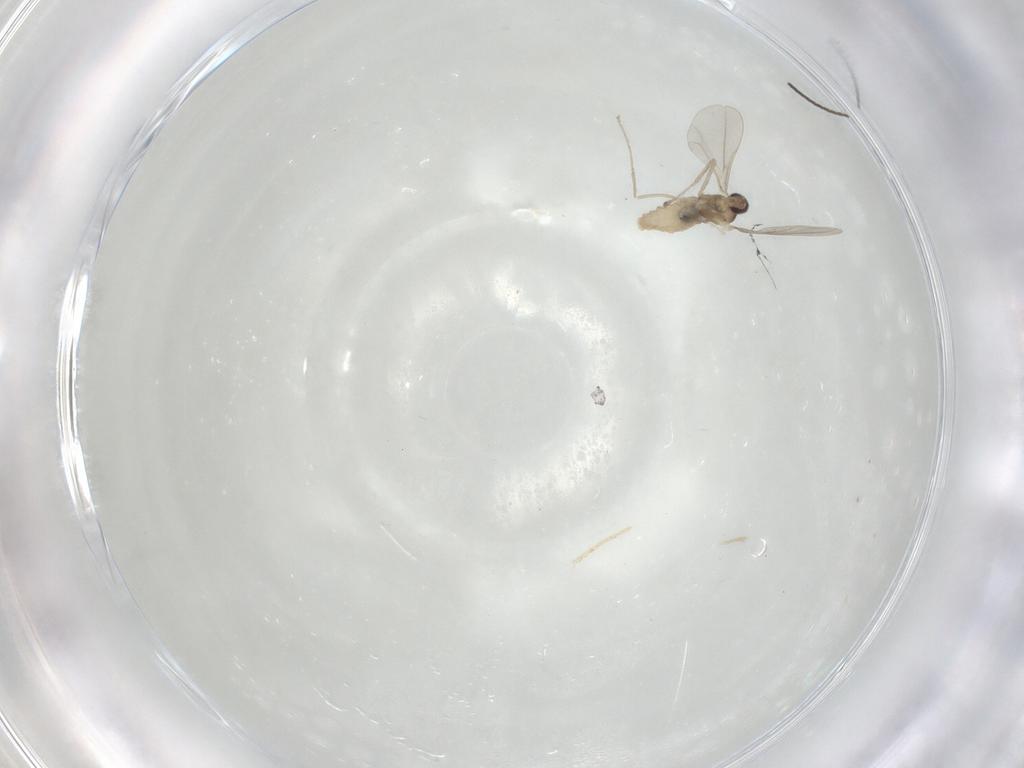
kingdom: Animalia
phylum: Arthropoda
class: Insecta
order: Diptera
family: Cecidomyiidae
